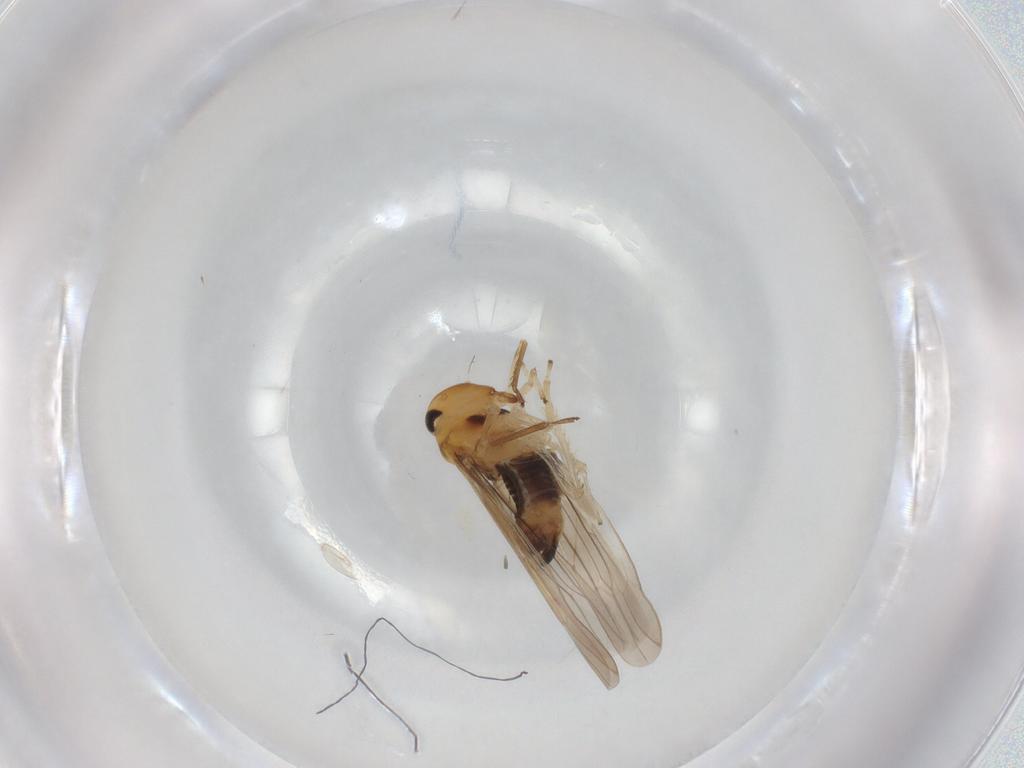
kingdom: Animalia
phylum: Arthropoda
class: Insecta
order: Hemiptera
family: Cicadellidae
